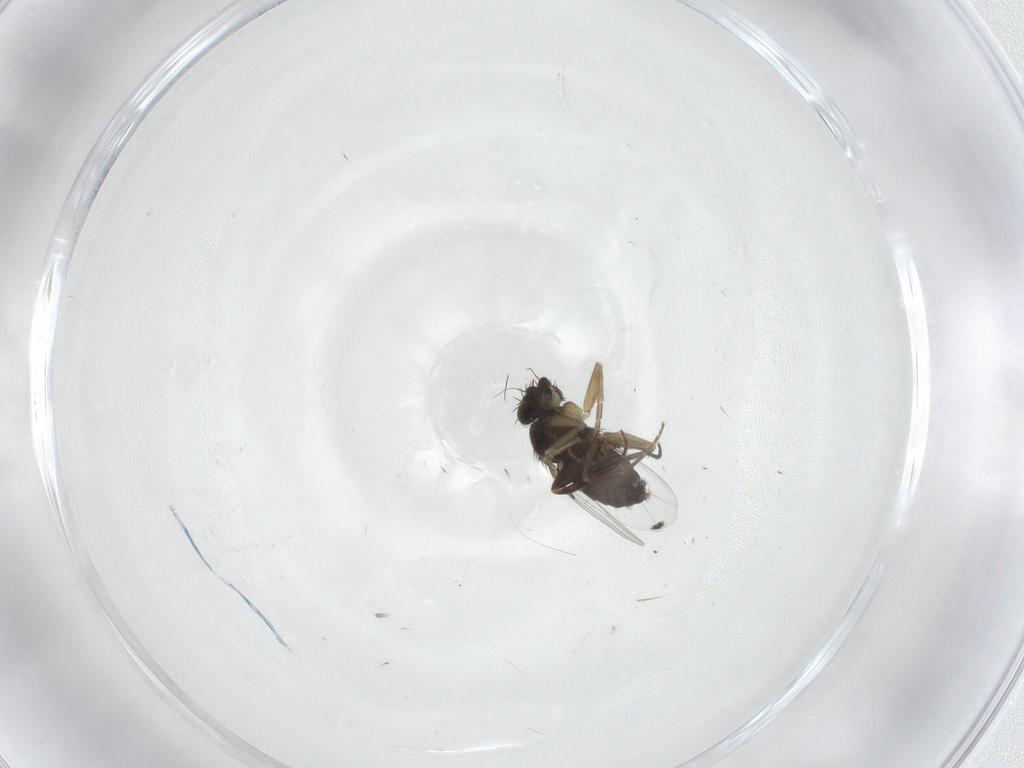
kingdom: Animalia
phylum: Arthropoda
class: Insecta
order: Diptera
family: Phoridae
